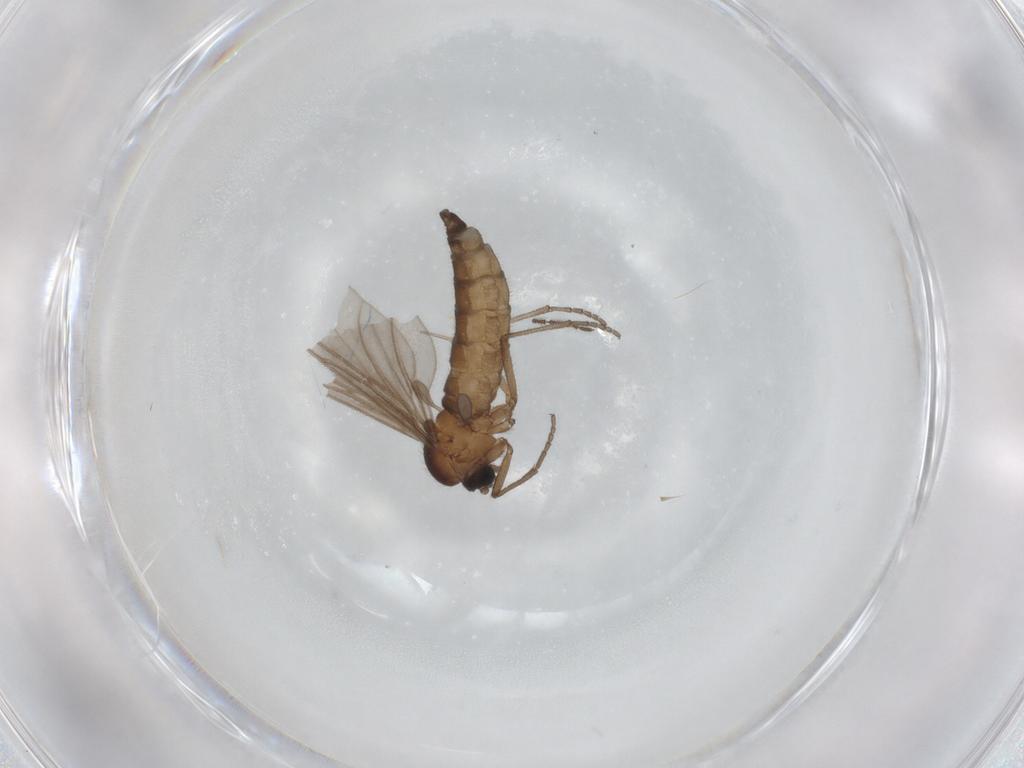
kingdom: Animalia
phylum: Arthropoda
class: Insecta
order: Diptera
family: Sciaridae
